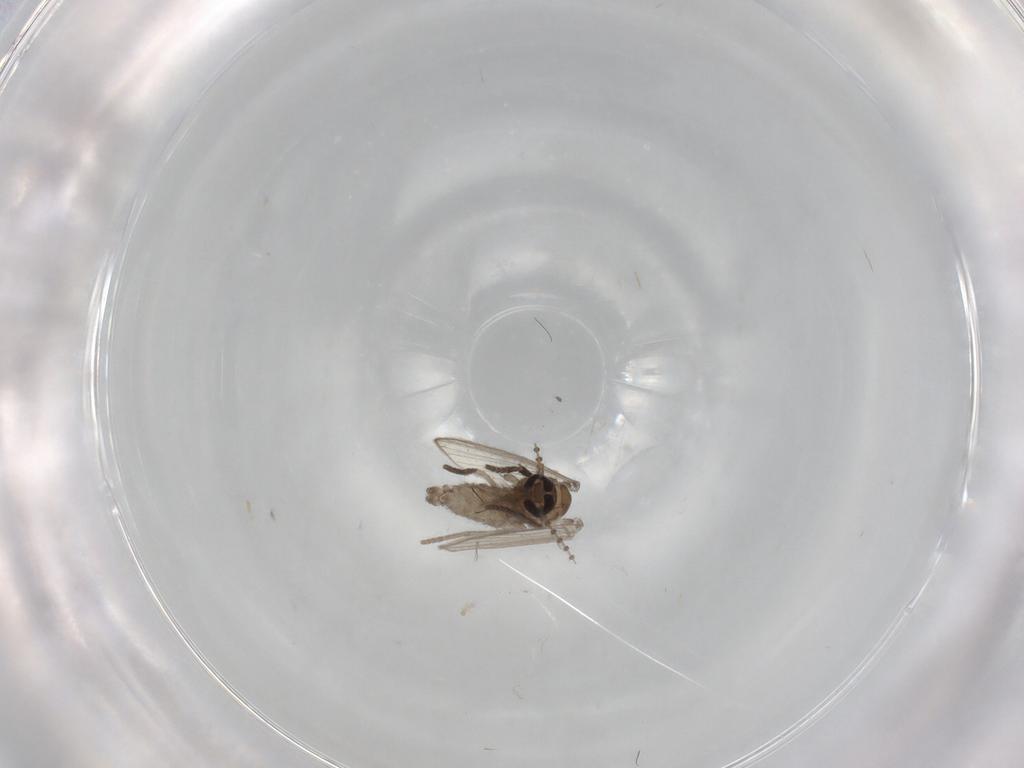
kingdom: Animalia
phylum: Arthropoda
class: Insecta
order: Diptera
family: Psychodidae
